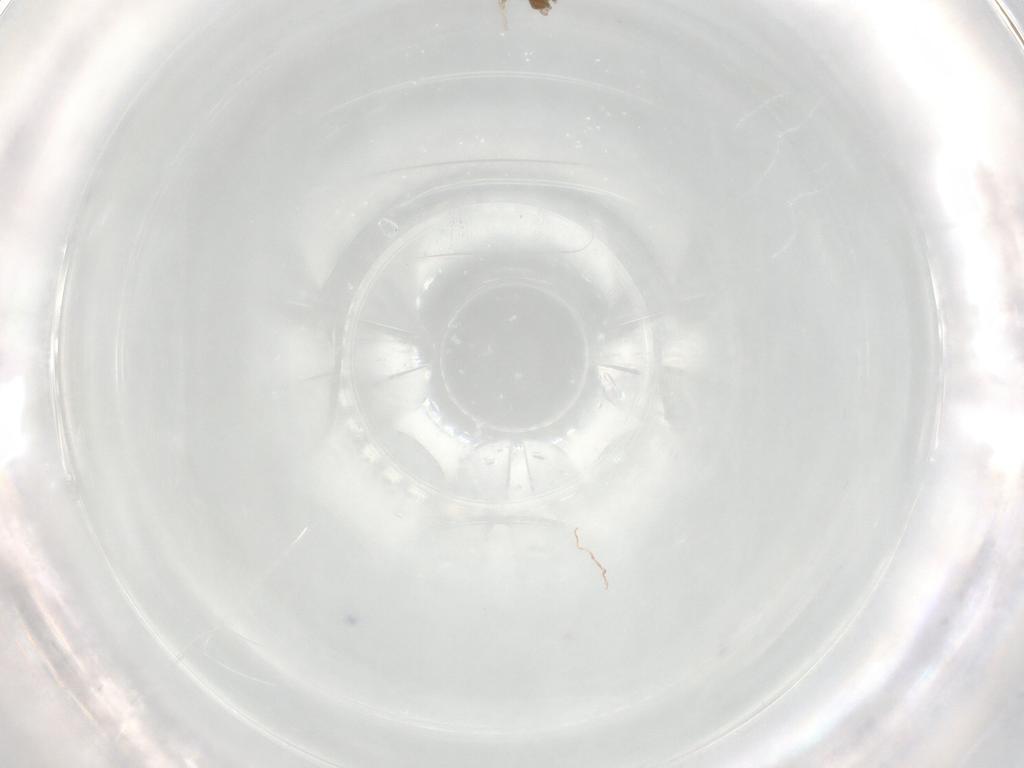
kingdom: Animalia
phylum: Arthropoda
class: Insecta
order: Diptera
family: Stratiomyidae
